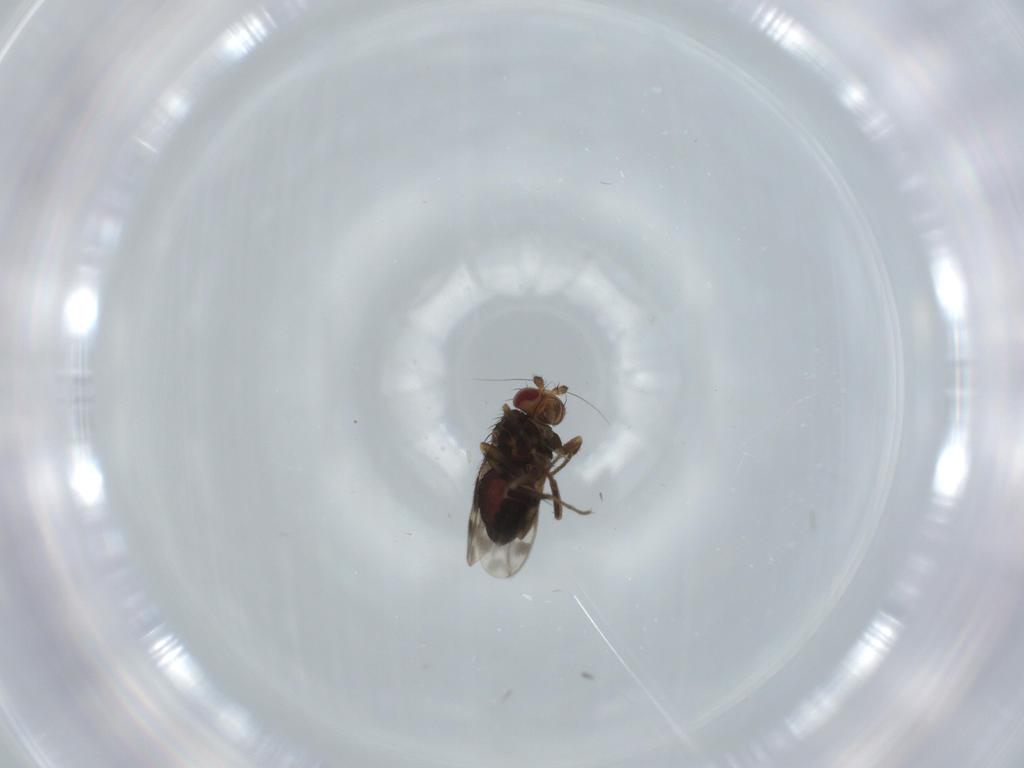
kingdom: Animalia
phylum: Arthropoda
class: Insecta
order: Diptera
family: Sphaeroceridae
